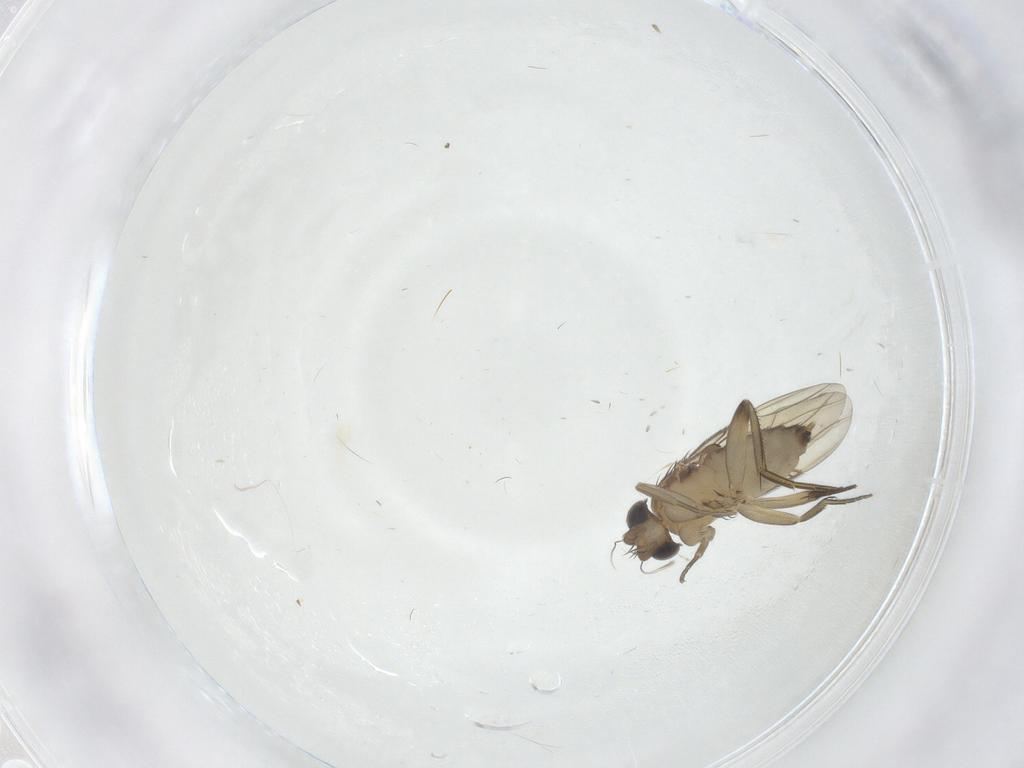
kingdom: Animalia
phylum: Arthropoda
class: Insecta
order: Diptera
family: Phoridae
